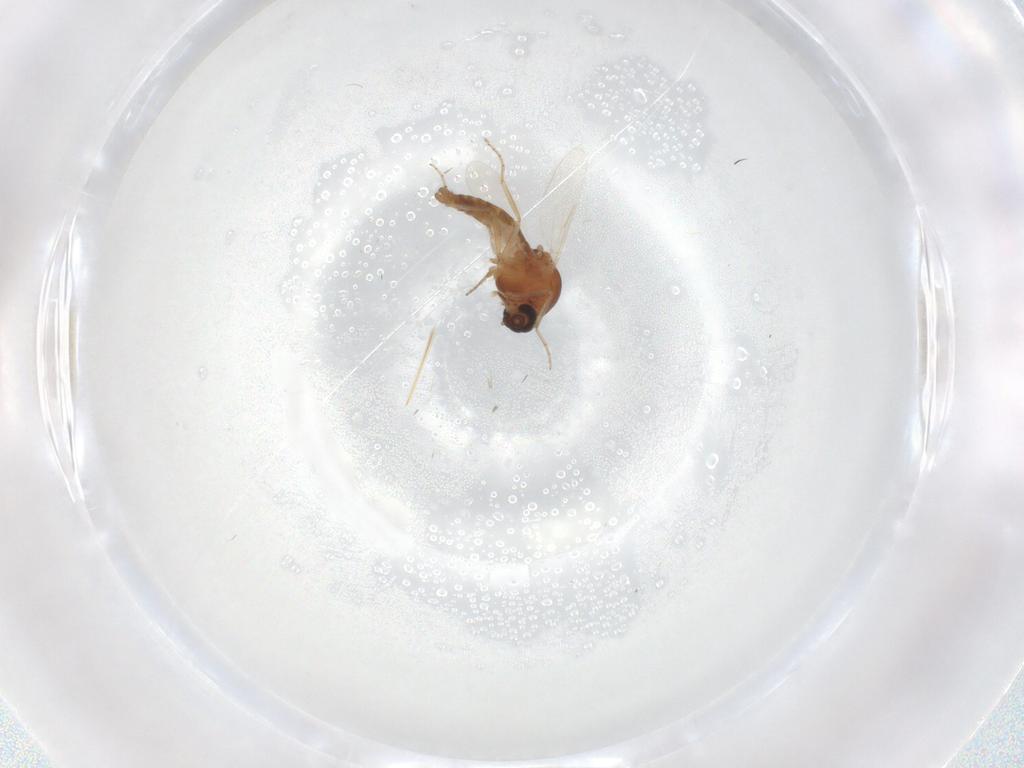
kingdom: Animalia
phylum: Arthropoda
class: Insecta
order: Diptera
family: Ceratopogonidae
